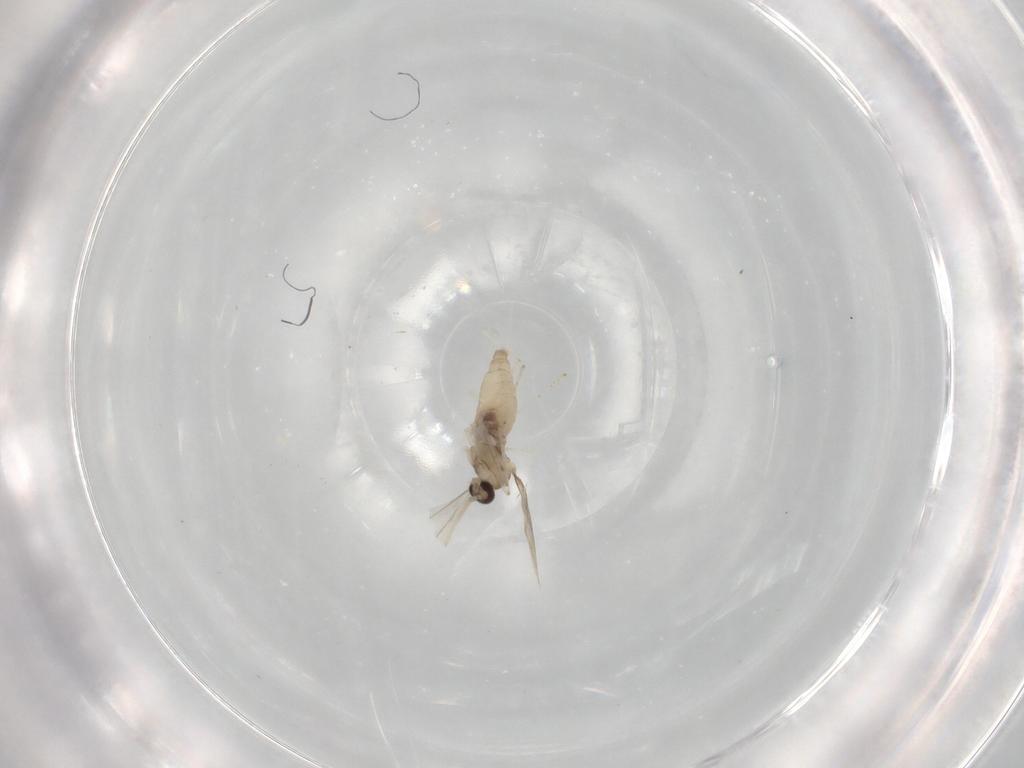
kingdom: Animalia
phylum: Arthropoda
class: Insecta
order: Diptera
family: Cecidomyiidae
